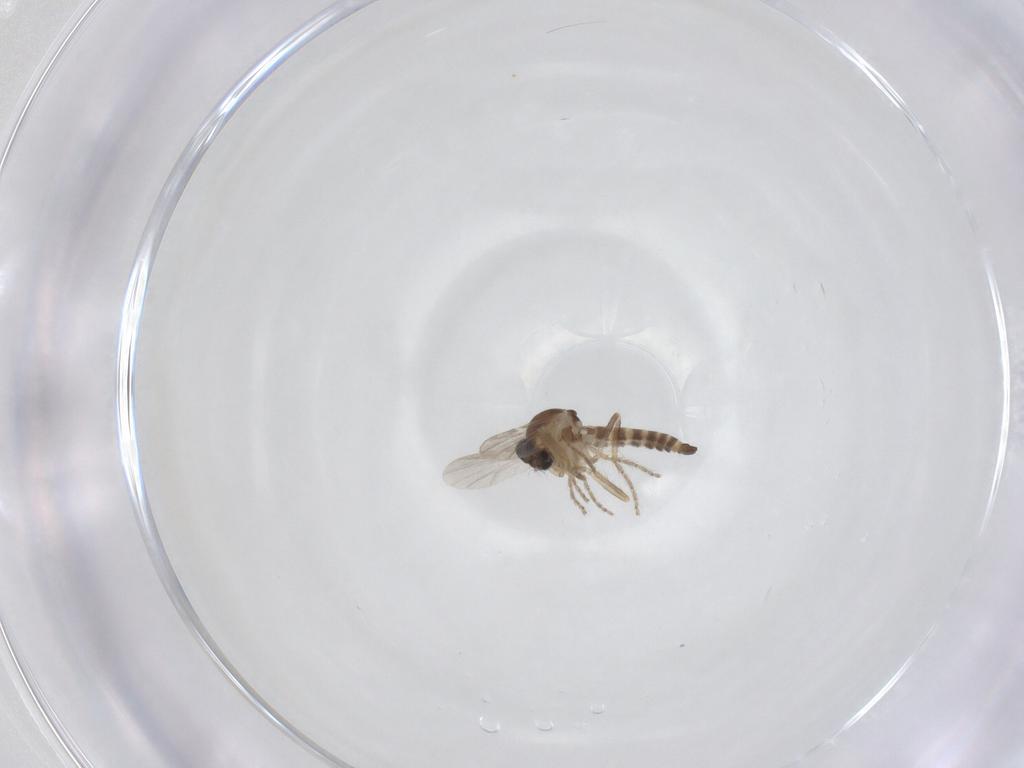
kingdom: Animalia
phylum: Arthropoda
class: Insecta
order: Diptera
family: Ceratopogonidae
